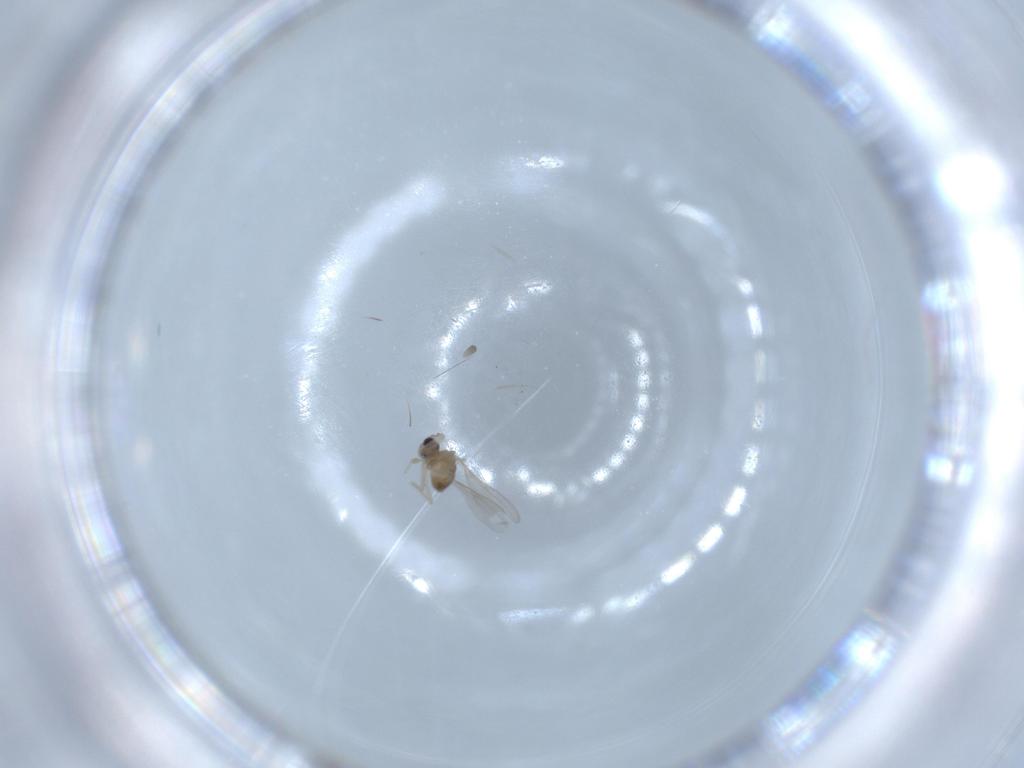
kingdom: Animalia
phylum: Arthropoda
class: Insecta
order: Diptera
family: Cecidomyiidae
